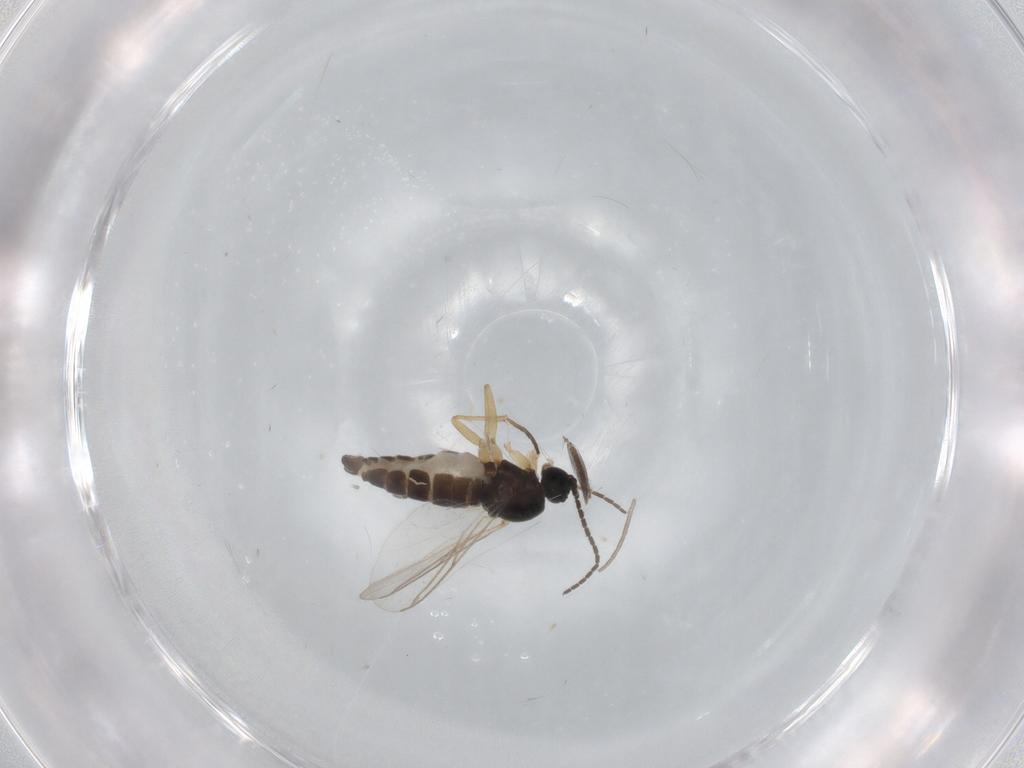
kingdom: Animalia
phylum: Arthropoda
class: Insecta
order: Diptera
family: Ceratopogonidae
